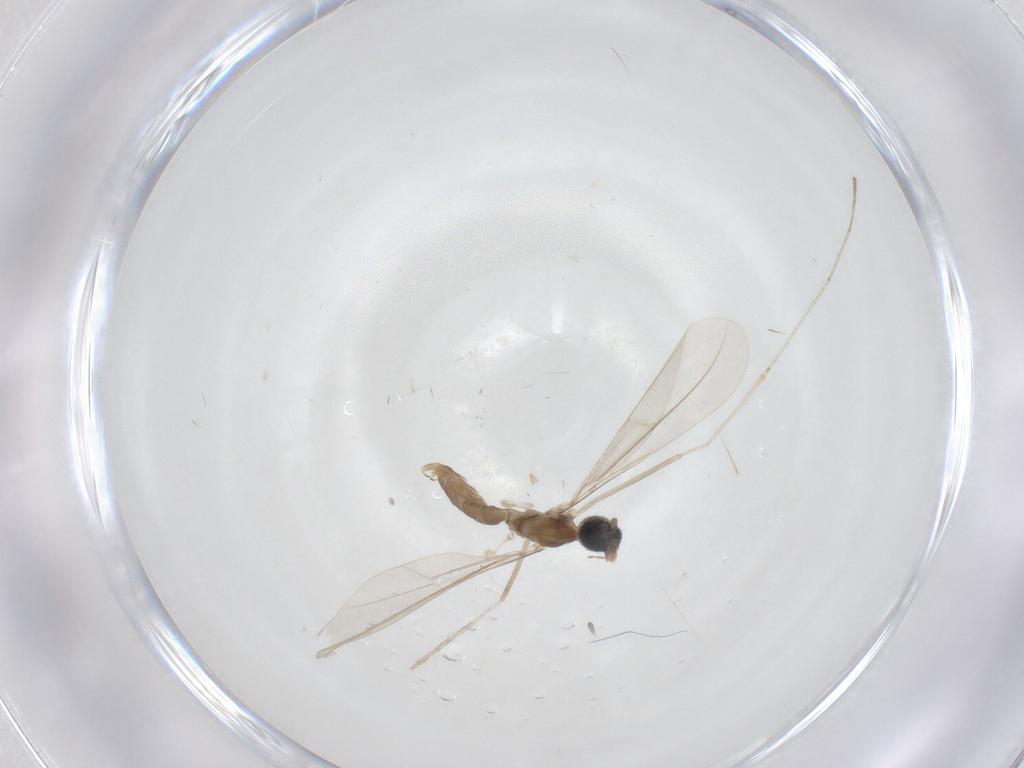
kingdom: Animalia
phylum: Arthropoda
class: Insecta
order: Diptera
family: Cecidomyiidae
